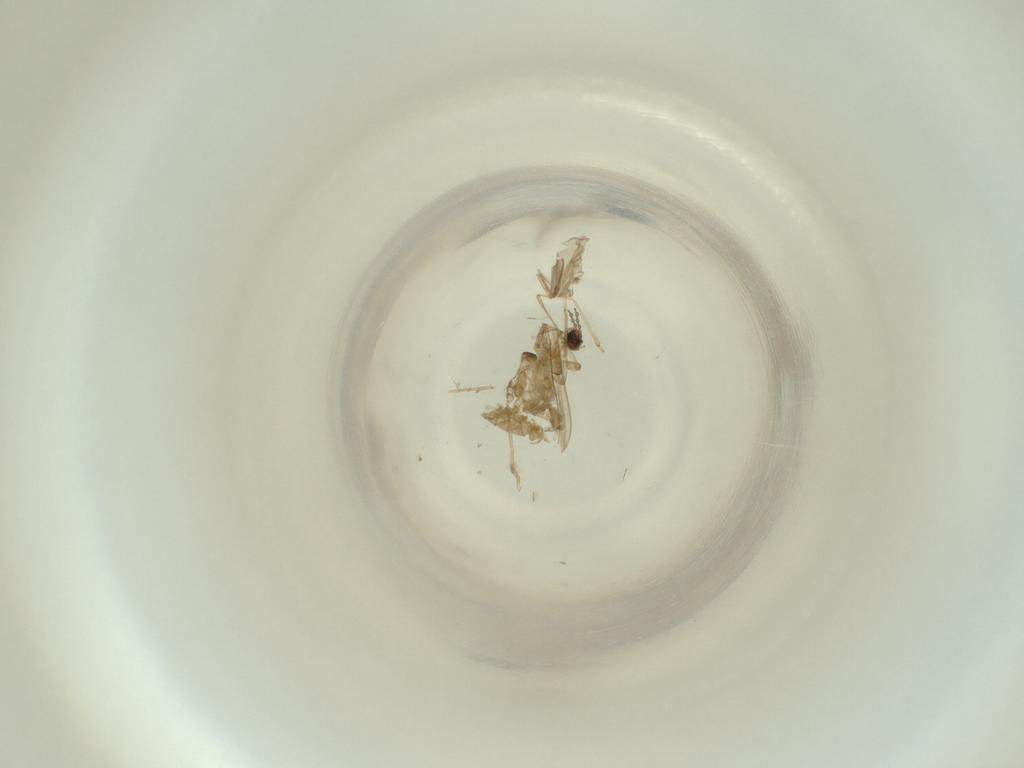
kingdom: Animalia
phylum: Arthropoda
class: Insecta
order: Diptera
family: Cecidomyiidae
